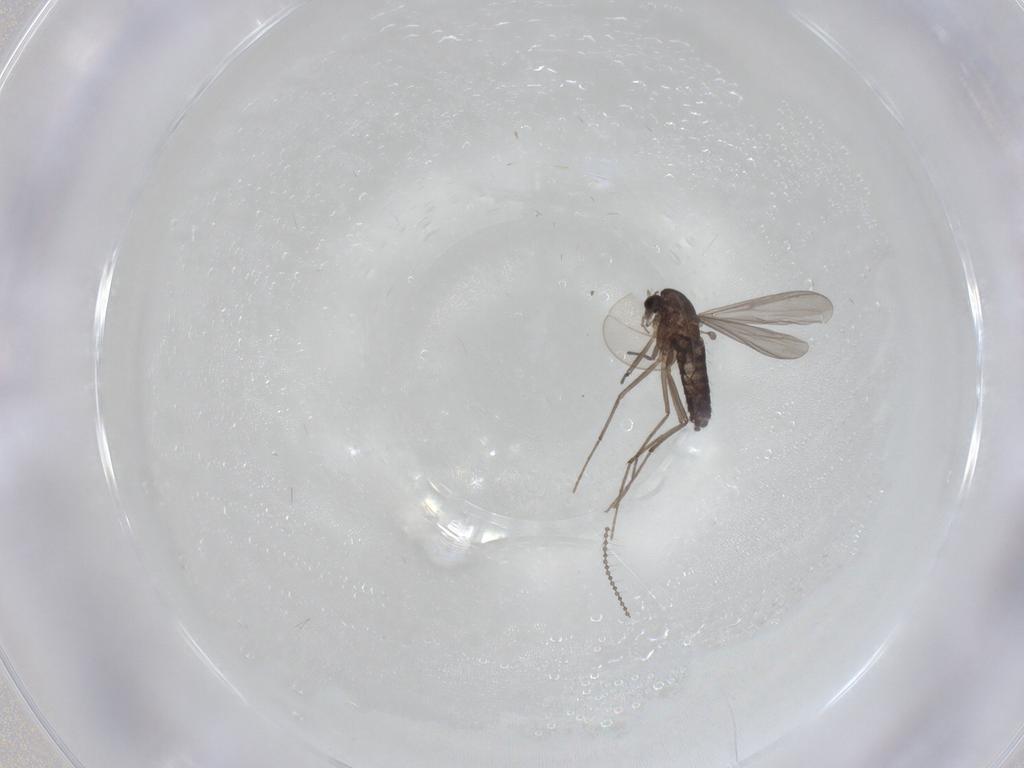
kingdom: Animalia
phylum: Arthropoda
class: Insecta
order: Diptera
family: Chironomidae
